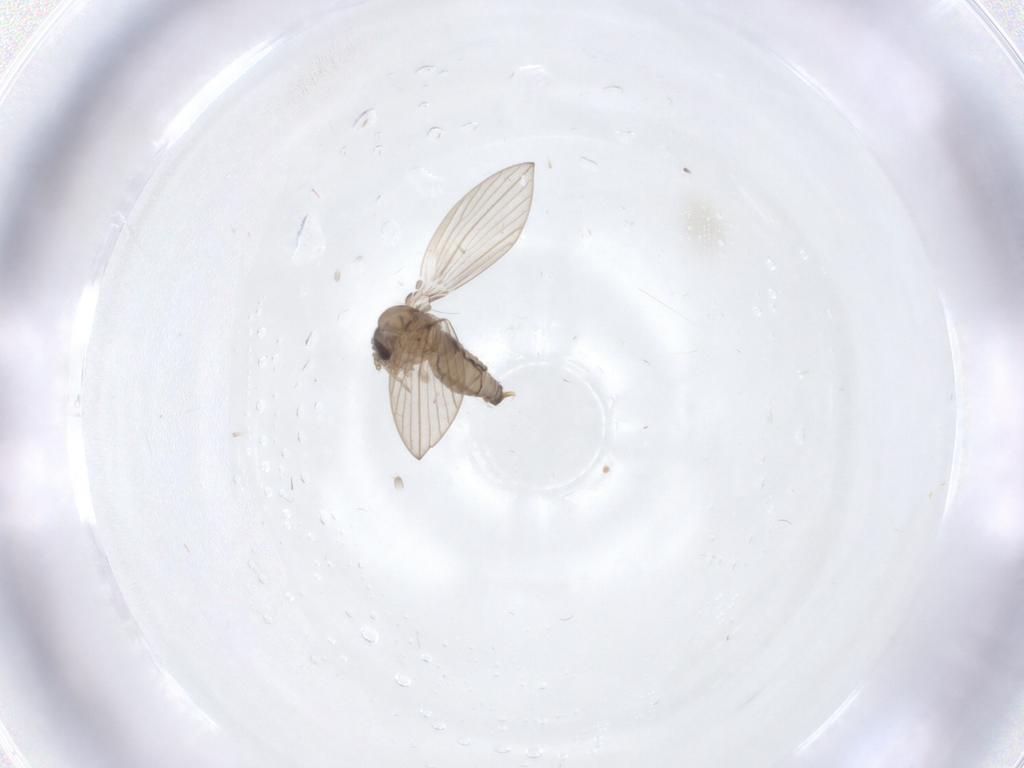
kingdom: Animalia
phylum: Arthropoda
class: Insecta
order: Diptera
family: Psychodidae
